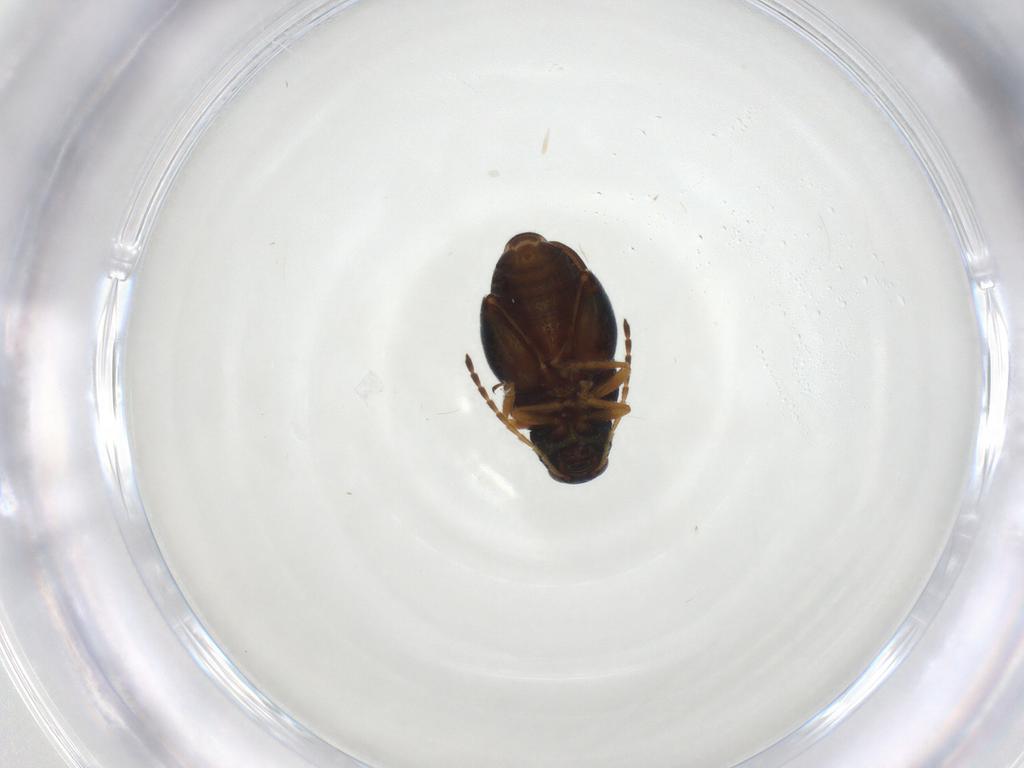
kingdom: Animalia
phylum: Arthropoda
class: Insecta
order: Coleoptera
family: Chrysomelidae
